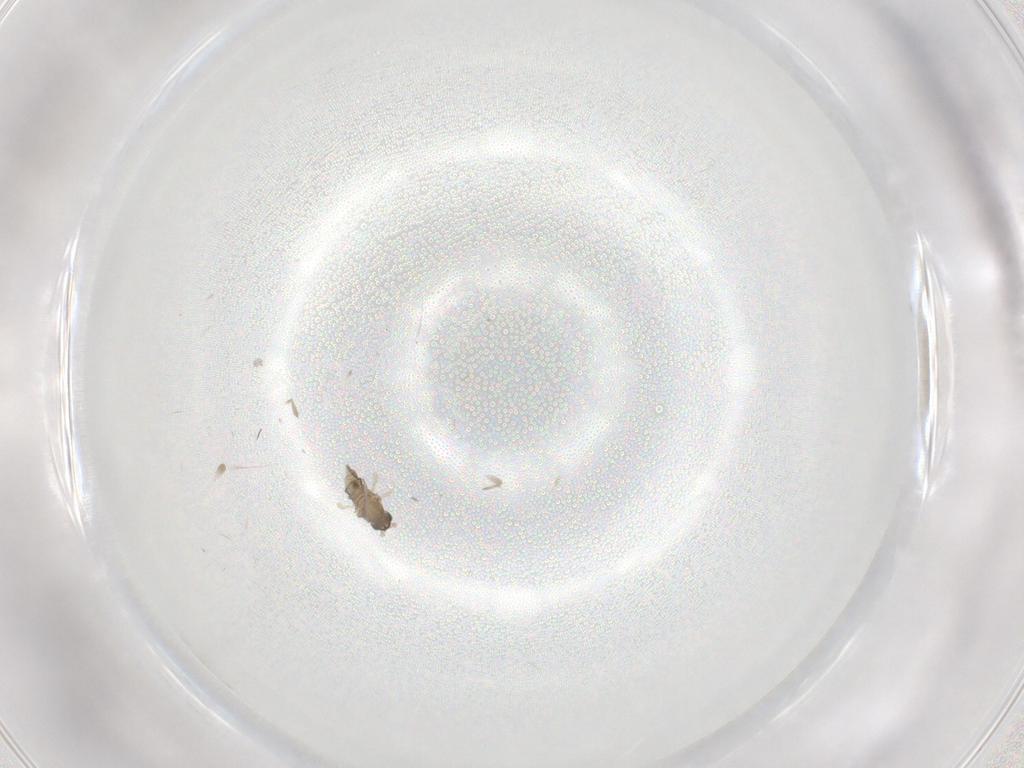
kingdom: Animalia
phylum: Arthropoda
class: Insecta
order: Diptera
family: Cecidomyiidae
